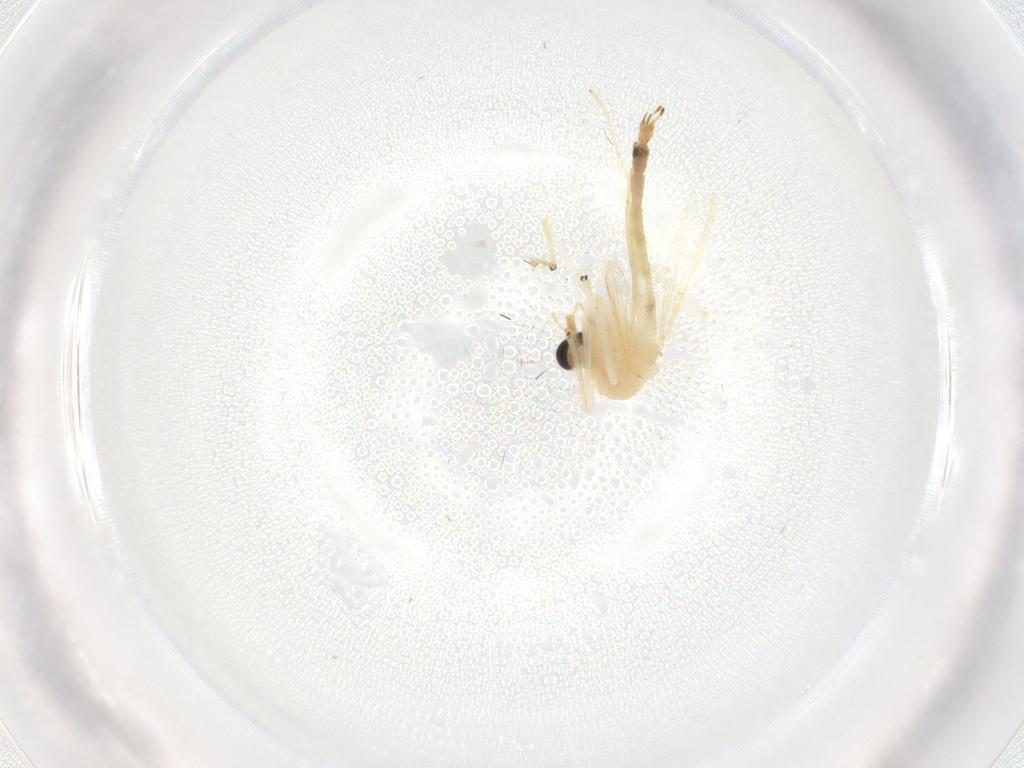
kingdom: Animalia
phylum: Arthropoda
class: Insecta
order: Diptera
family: Dolichopodidae
